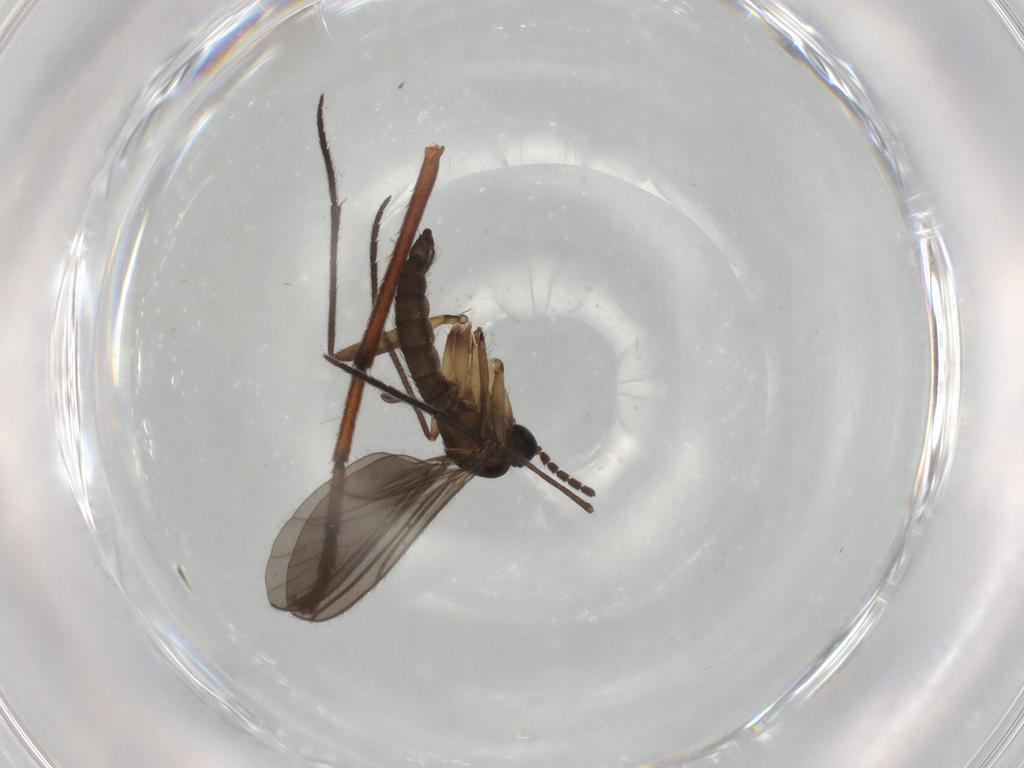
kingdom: Animalia
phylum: Arthropoda
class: Insecta
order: Diptera
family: Sciaridae
